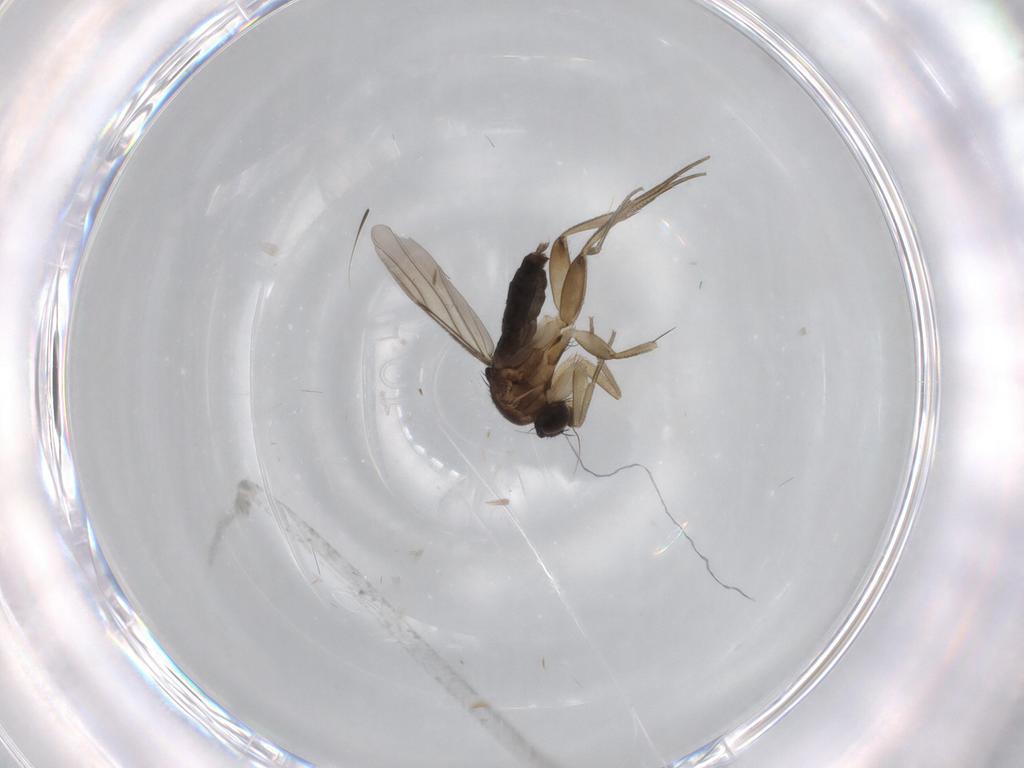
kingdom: Animalia
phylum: Arthropoda
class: Insecta
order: Diptera
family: Phoridae
